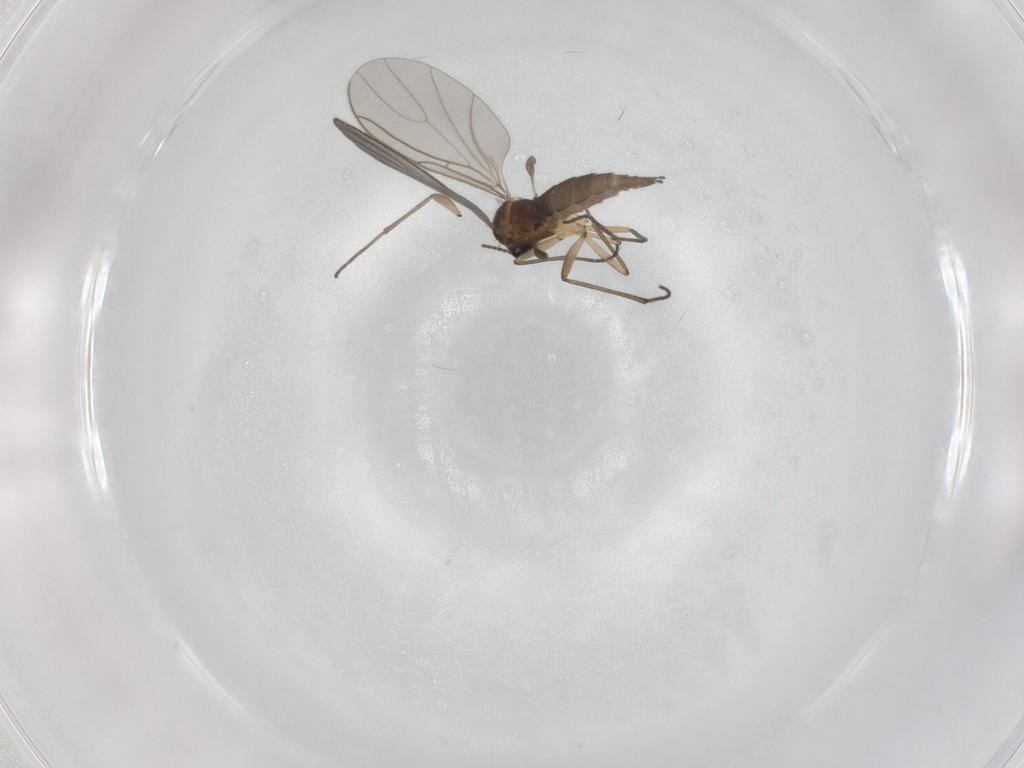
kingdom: Animalia
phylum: Arthropoda
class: Insecta
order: Diptera
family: Sciaridae
